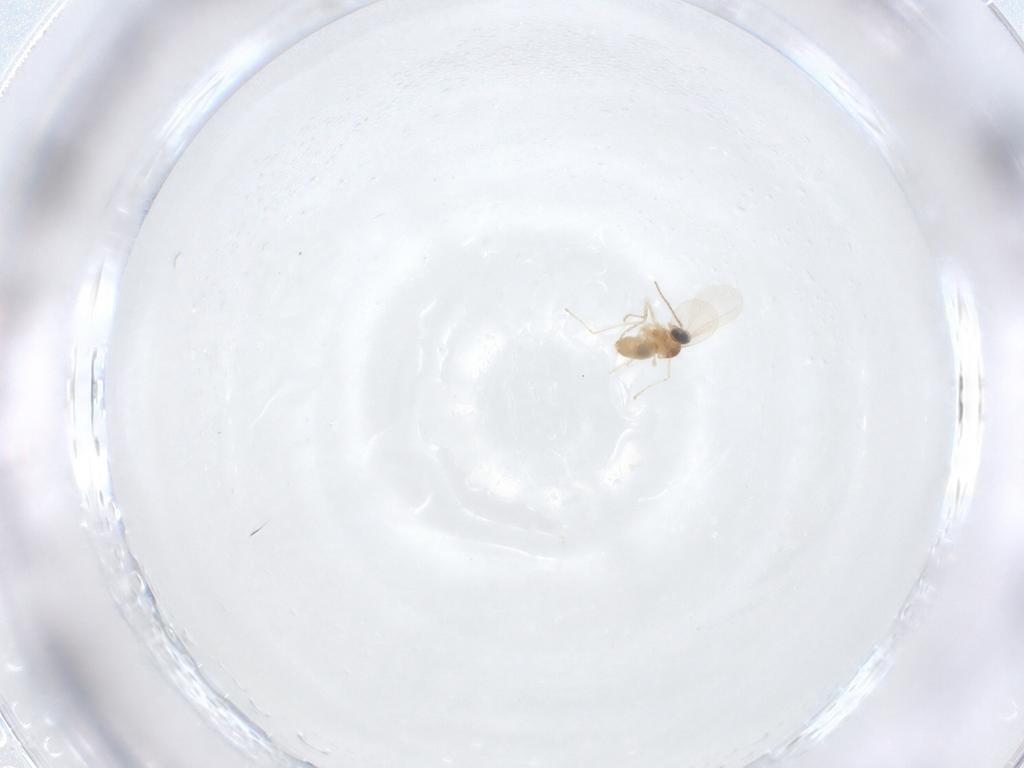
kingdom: Animalia
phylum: Arthropoda
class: Insecta
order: Diptera
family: Cecidomyiidae
